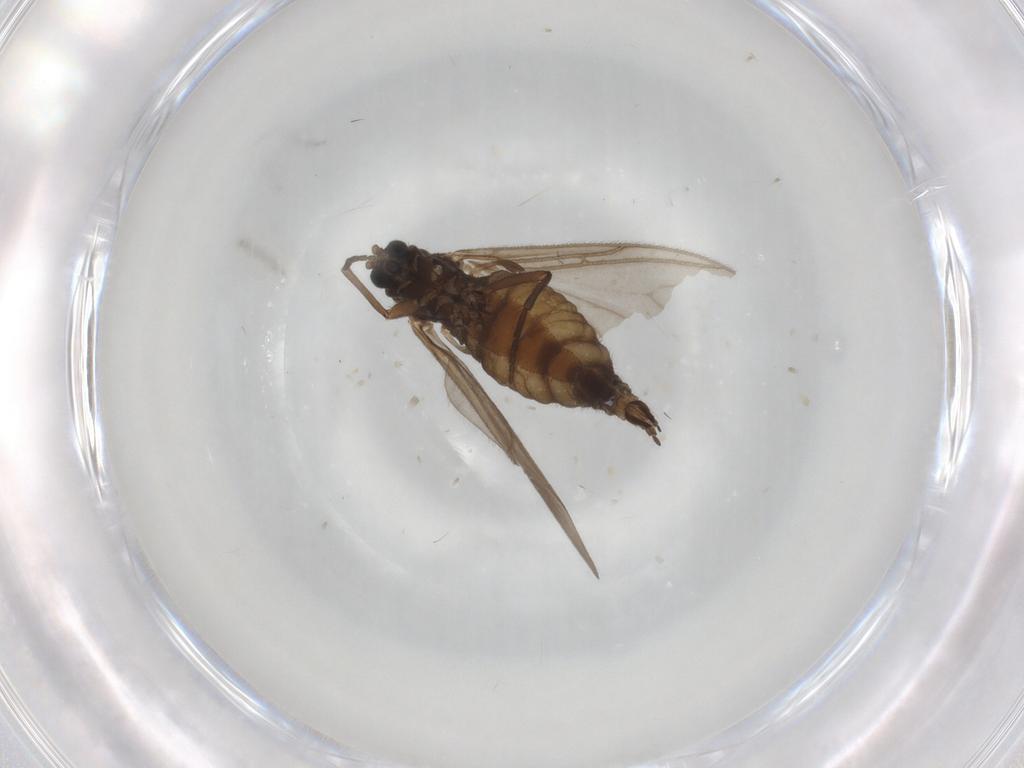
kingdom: Animalia
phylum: Arthropoda
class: Insecta
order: Diptera
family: Sciaridae
